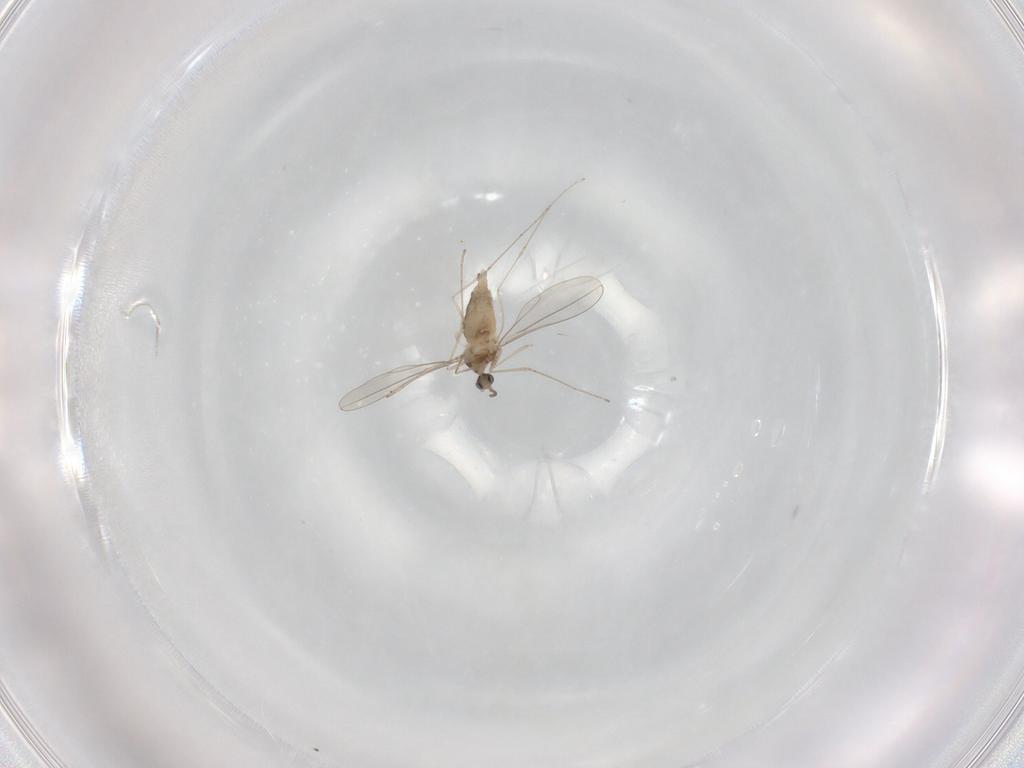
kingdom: Animalia
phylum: Arthropoda
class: Insecta
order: Diptera
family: Cecidomyiidae
